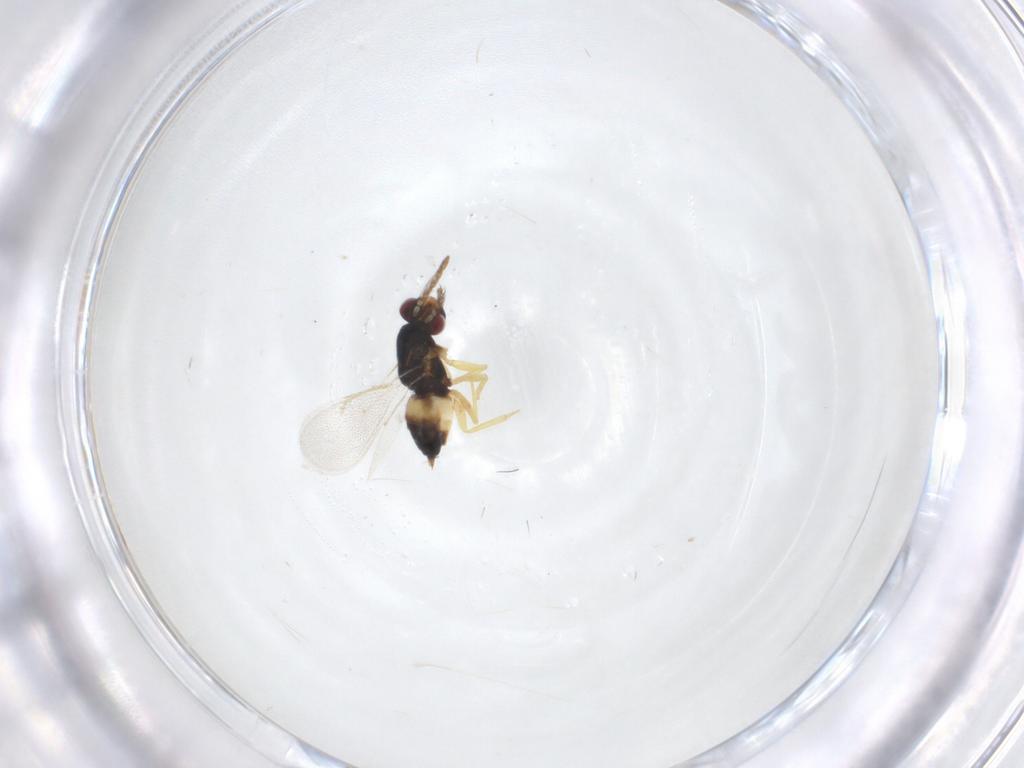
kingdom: Animalia
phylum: Arthropoda
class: Insecta
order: Hymenoptera
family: Eulophidae
